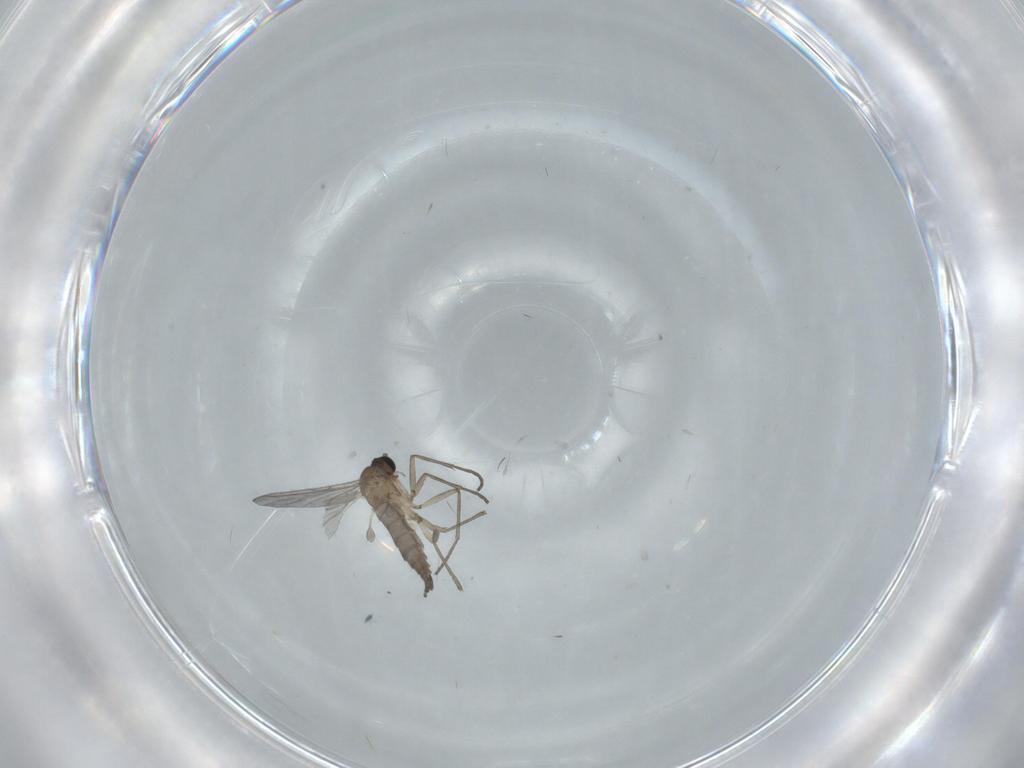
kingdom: Animalia
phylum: Arthropoda
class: Insecta
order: Diptera
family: Sciaridae
